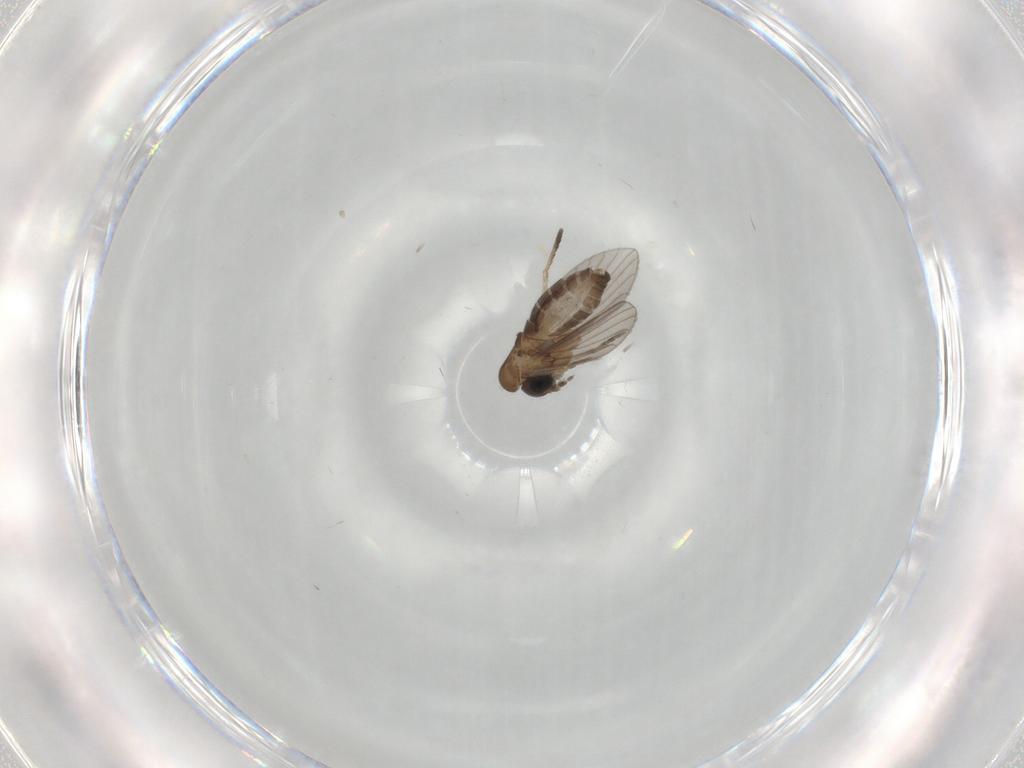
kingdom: Animalia
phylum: Arthropoda
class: Insecta
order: Diptera
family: Psychodidae
